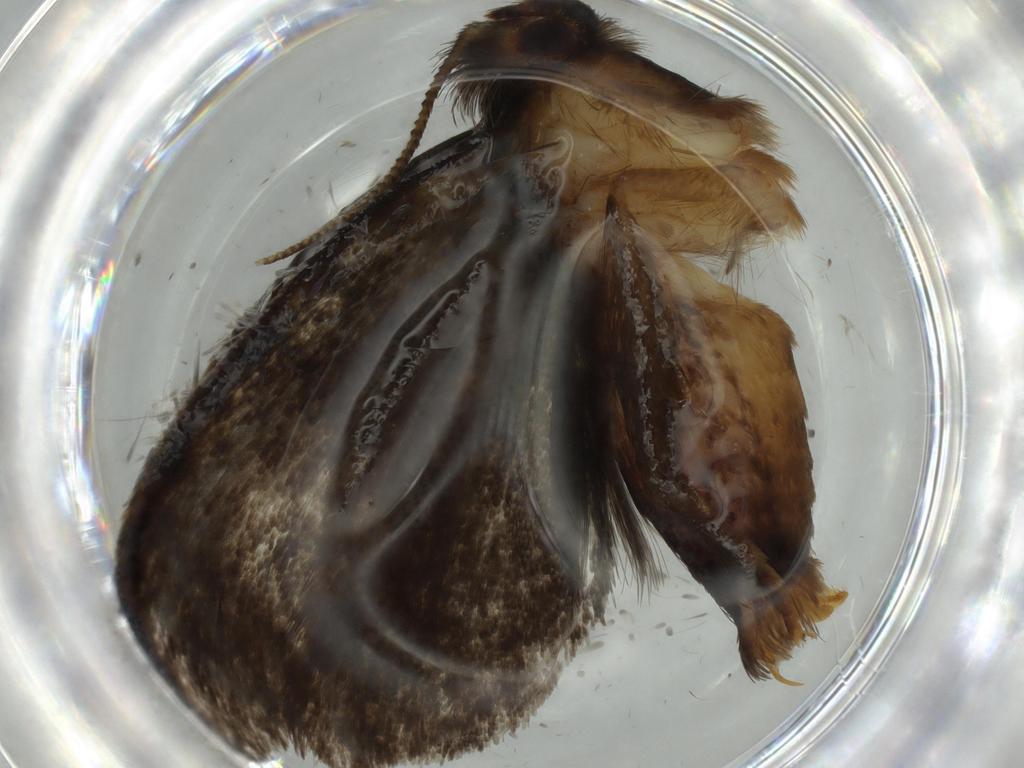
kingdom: Animalia
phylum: Arthropoda
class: Insecta
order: Lepidoptera
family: Tineidae
